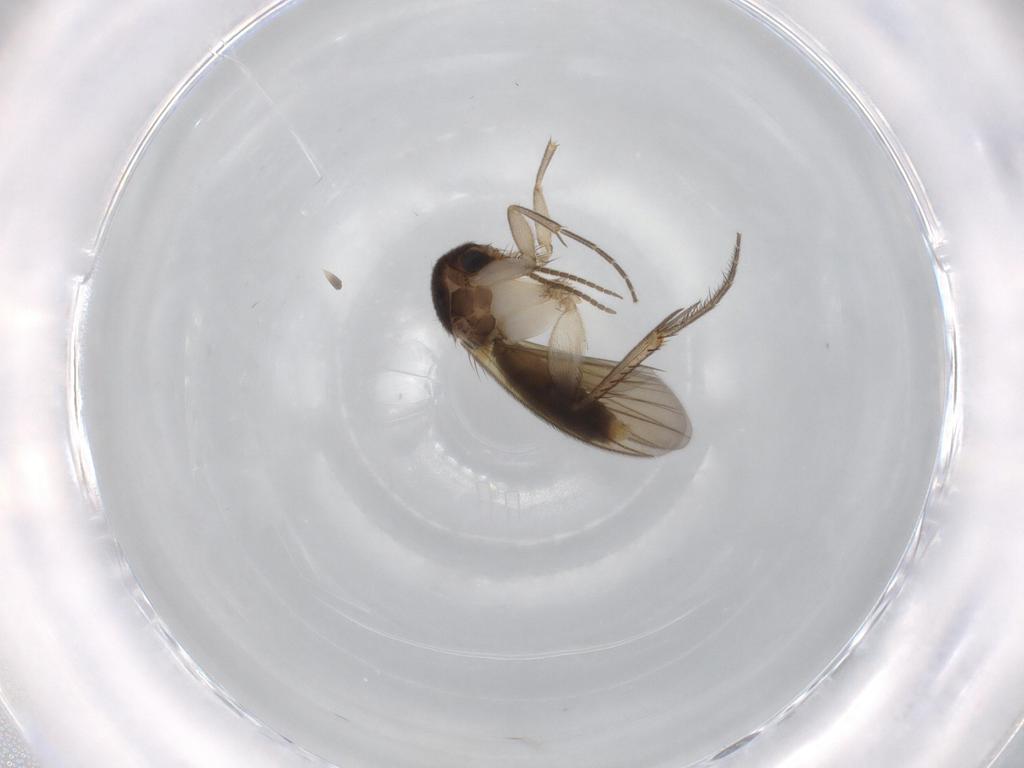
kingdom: Animalia
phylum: Arthropoda
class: Insecta
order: Diptera
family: Mycetophilidae
